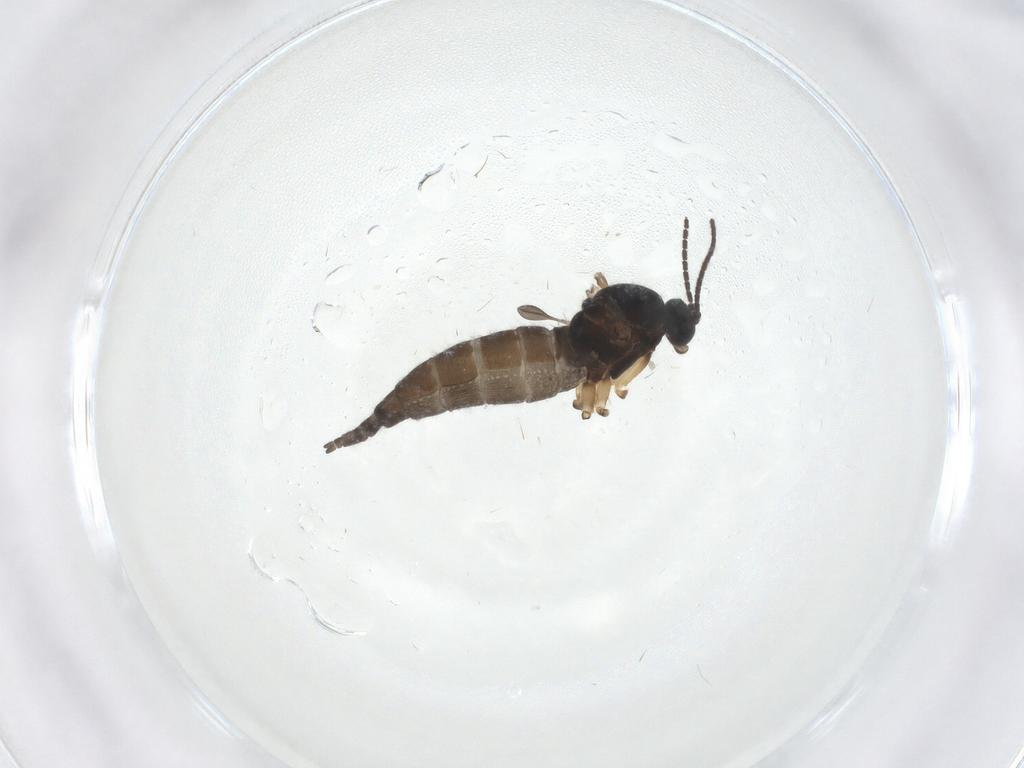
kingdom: Animalia
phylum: Arthropoda
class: Insecta
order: Diptera
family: Sciaridae
